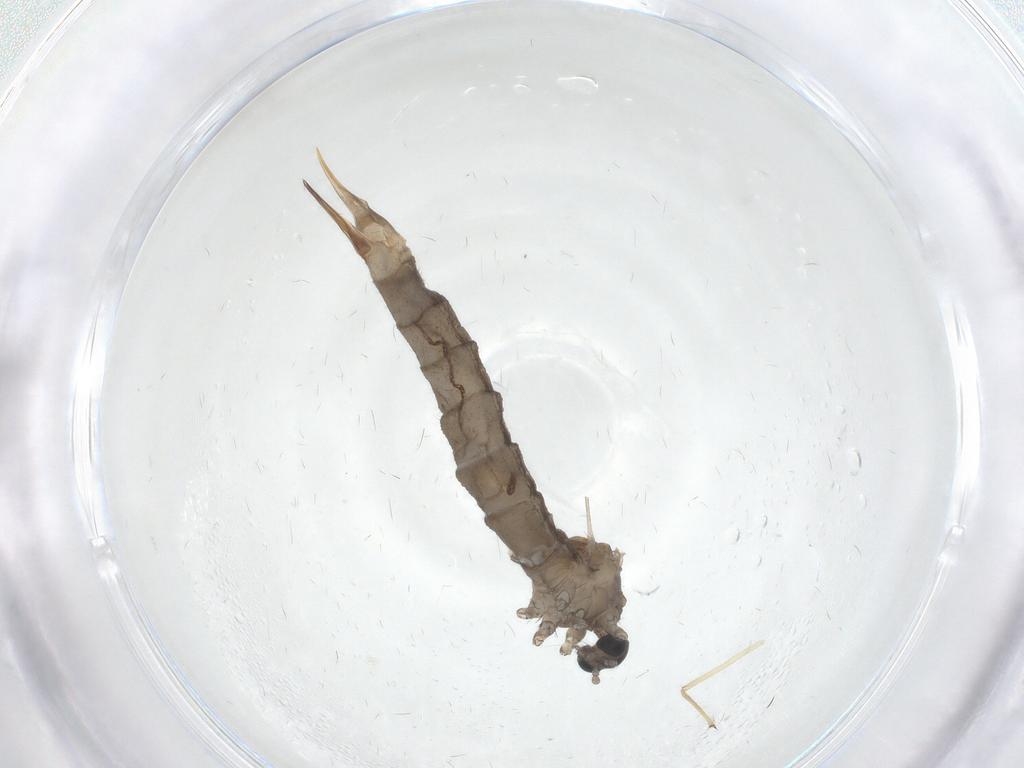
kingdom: Animalia
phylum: Arthropoda
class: Insecta
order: Diptera
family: Limoniidae
